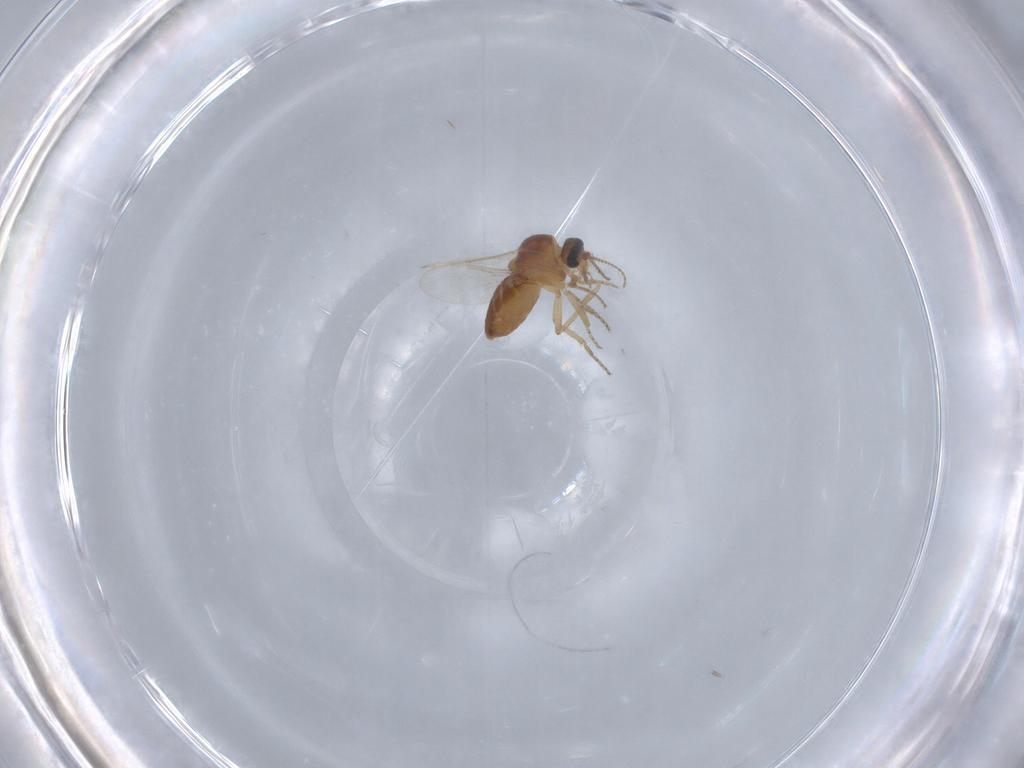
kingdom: Animalia
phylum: Arthropoda
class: Insecta
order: Diptera
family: Ceratopogonidae
